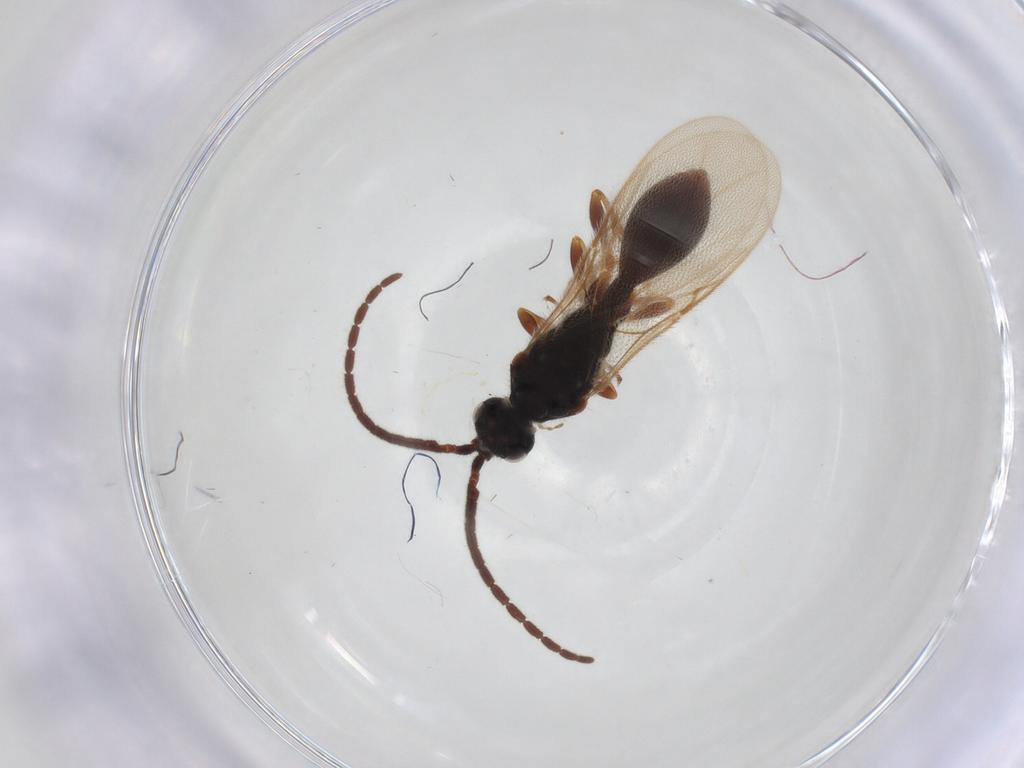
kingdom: Animalia
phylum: Arthropoda
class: Insecta
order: Hymenoptera
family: Diapriidae
